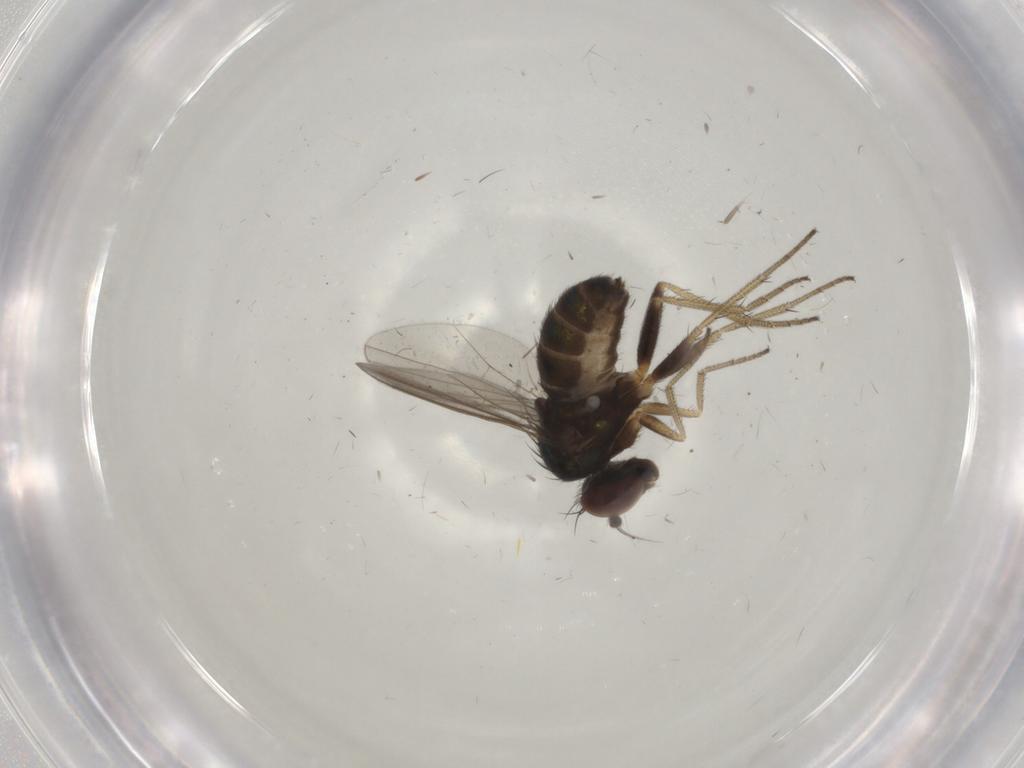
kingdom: Animalia
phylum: Arthropoda
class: Insecta
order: Diptera
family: Dolichopodidae
